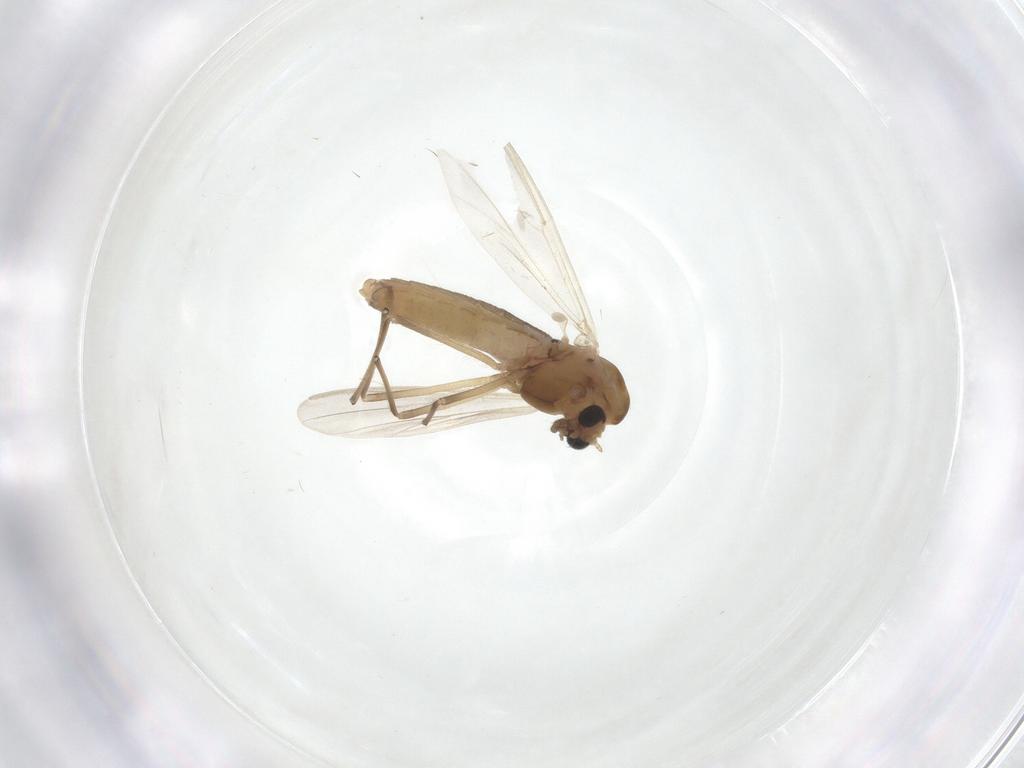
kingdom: Animalia
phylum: Arthropoda
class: Insecta
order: Diptera
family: Chironomidae
